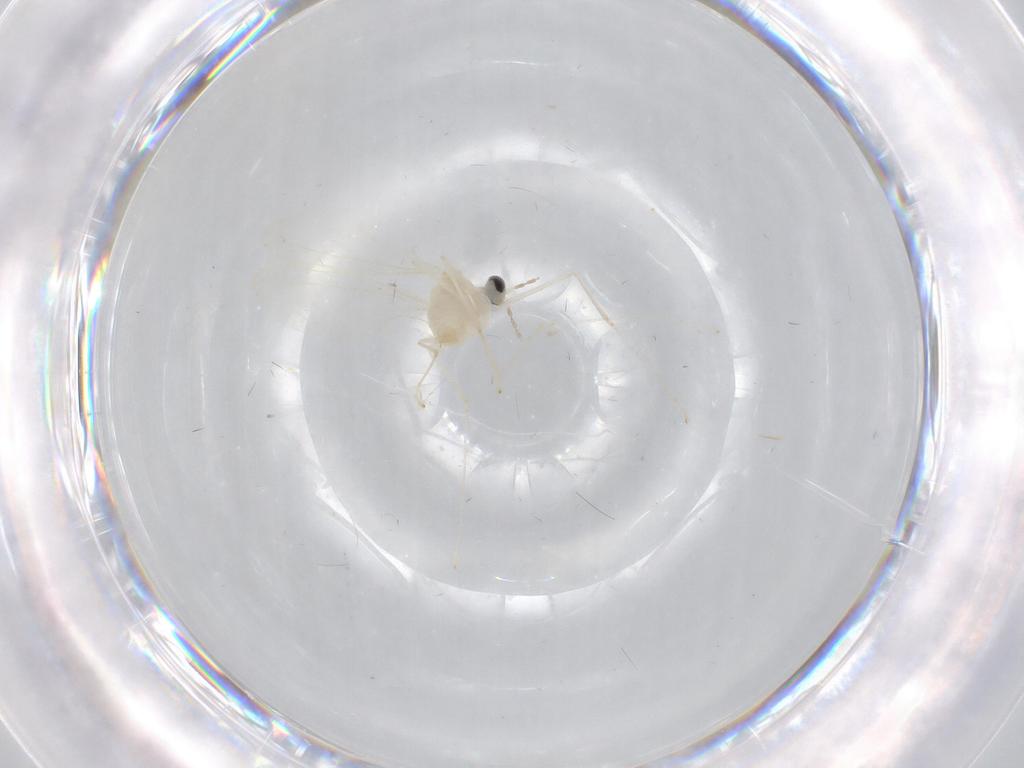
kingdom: Animalia
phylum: Arthropoda
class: Insecta
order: Diptera
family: Cecidomyiidae
